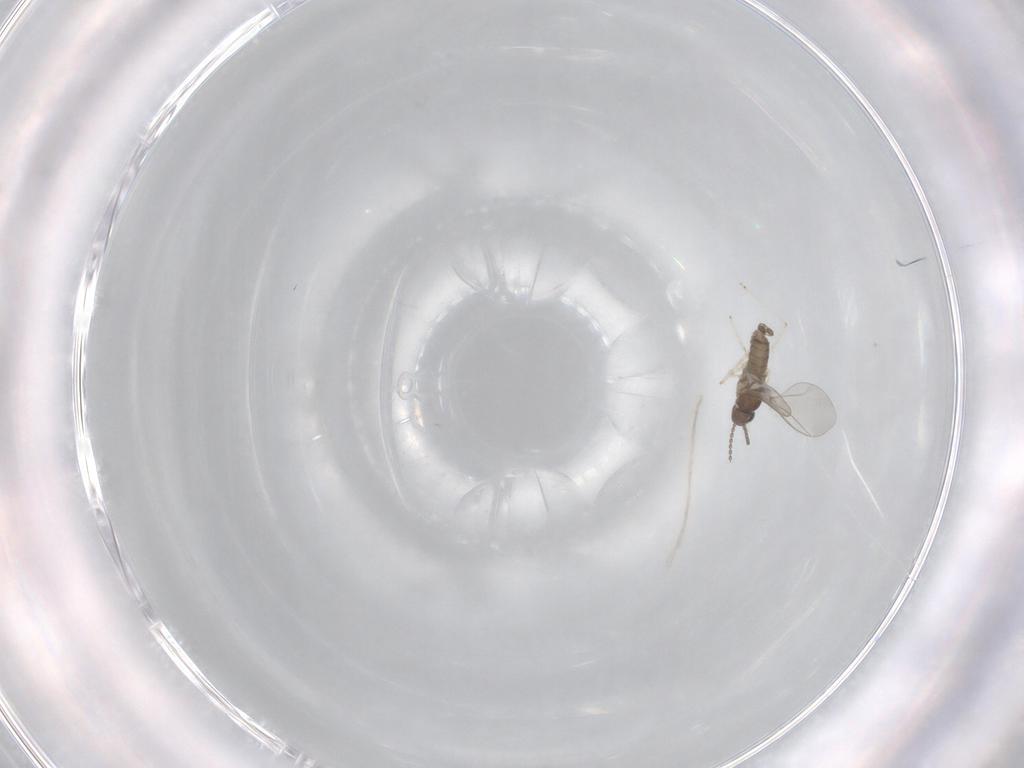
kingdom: Animalia
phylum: Arthropoda
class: Insecta
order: Diptera
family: Cecidomyiidae
